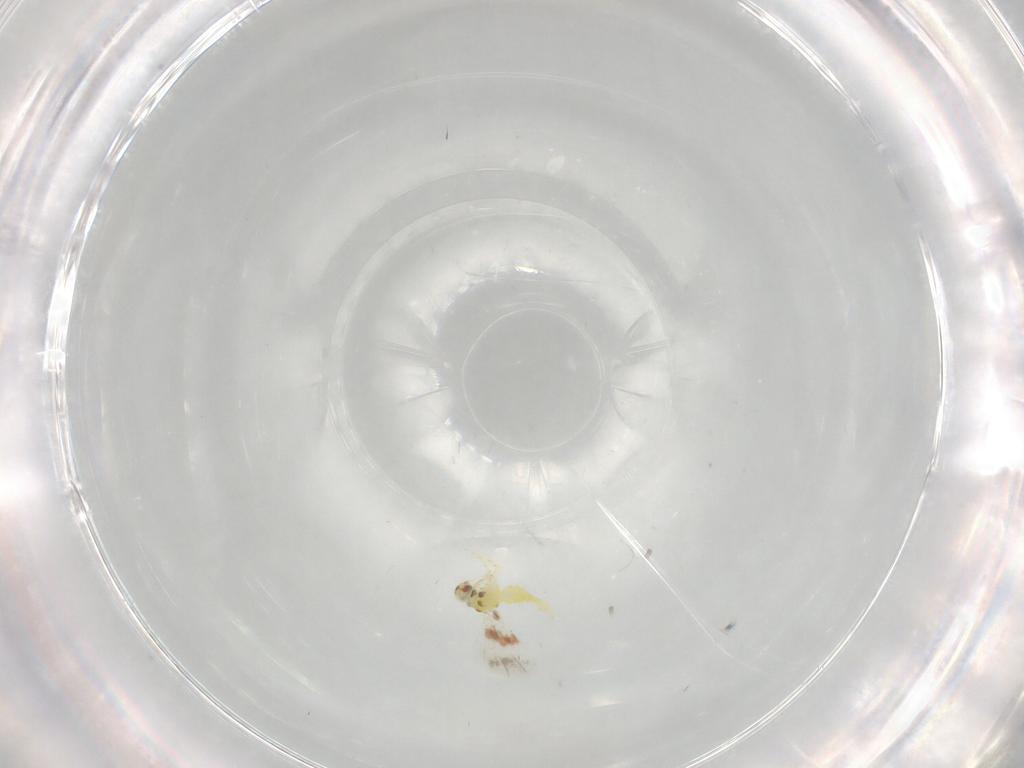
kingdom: Animalia
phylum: Arthropoda
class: Insecta
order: Hemiptera
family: Aleyrodidae
